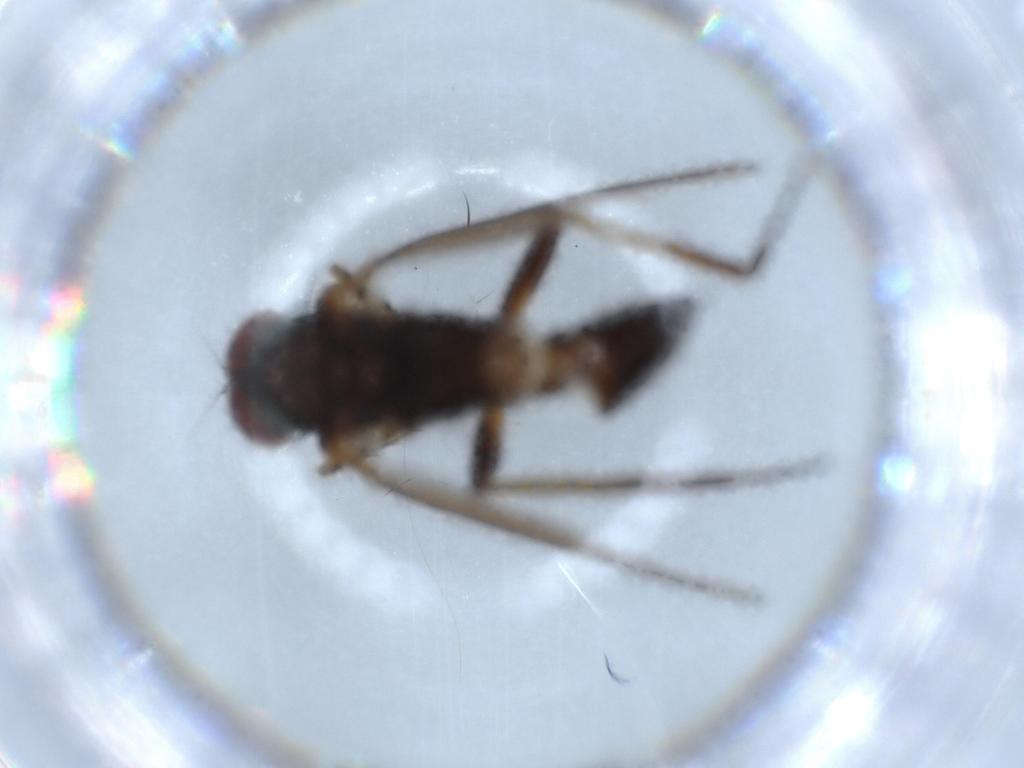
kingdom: Animalia
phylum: Arthropoda
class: Insecta
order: Diptera
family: Dolichopodidae
